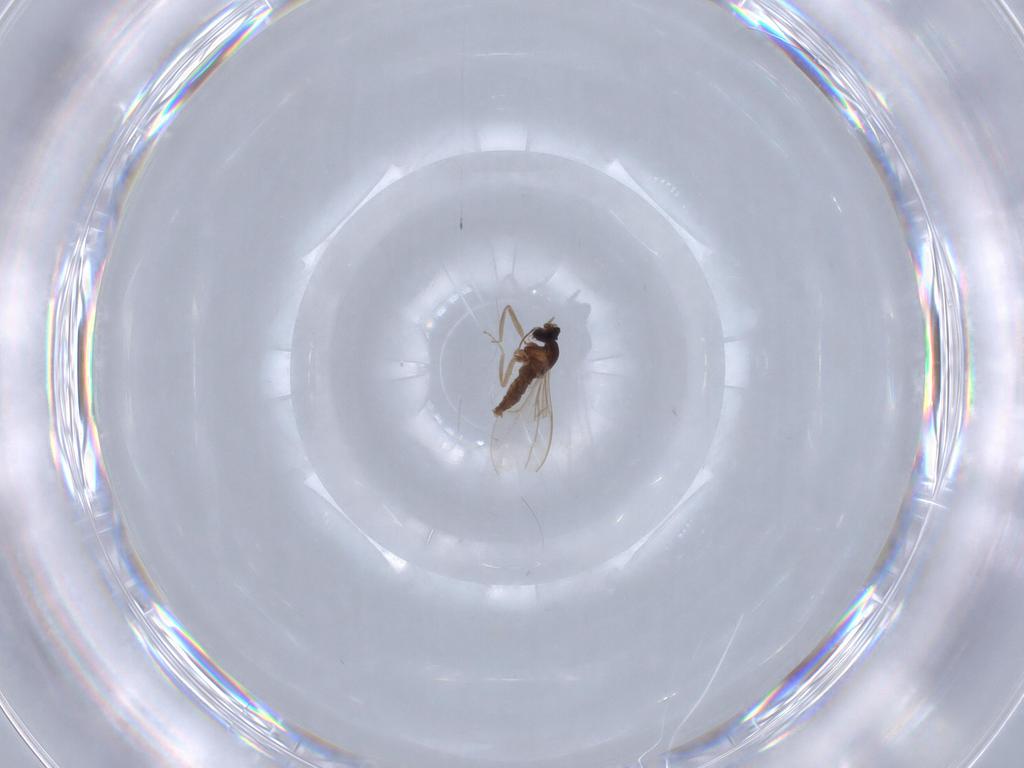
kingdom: Animalia
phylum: Arthropoda
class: Insecta
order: Diptera
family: Cecidomyiidae
